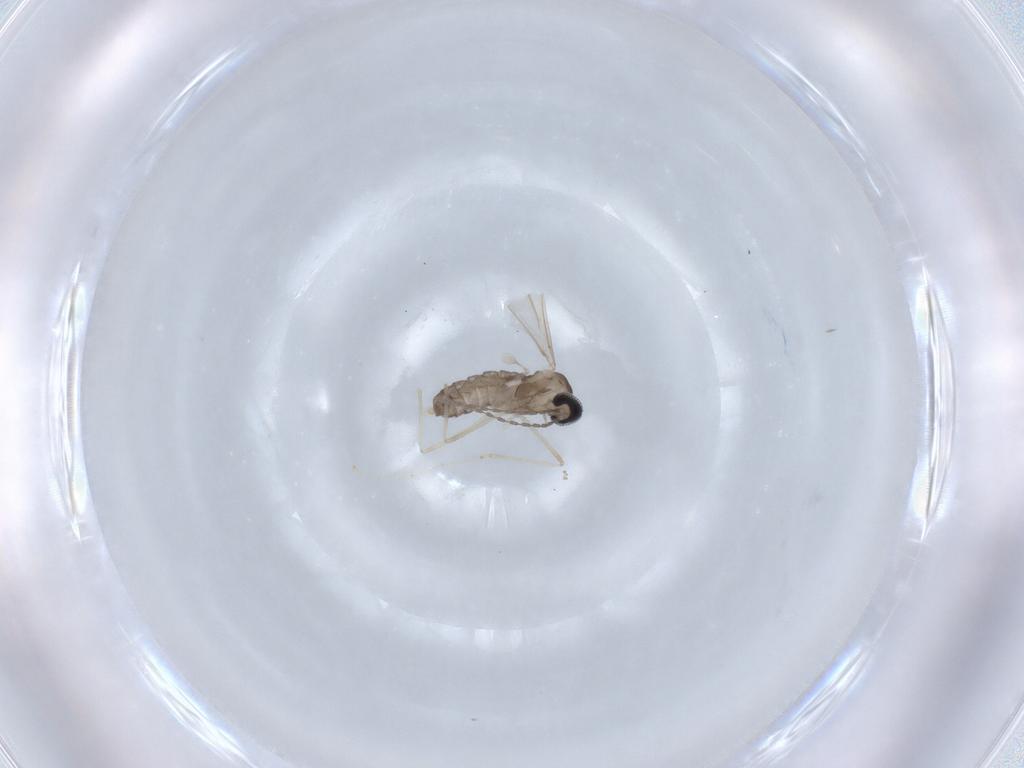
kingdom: Animalia
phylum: Arthropoda
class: Insecta
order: Diptera
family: Cecidomyiidae
